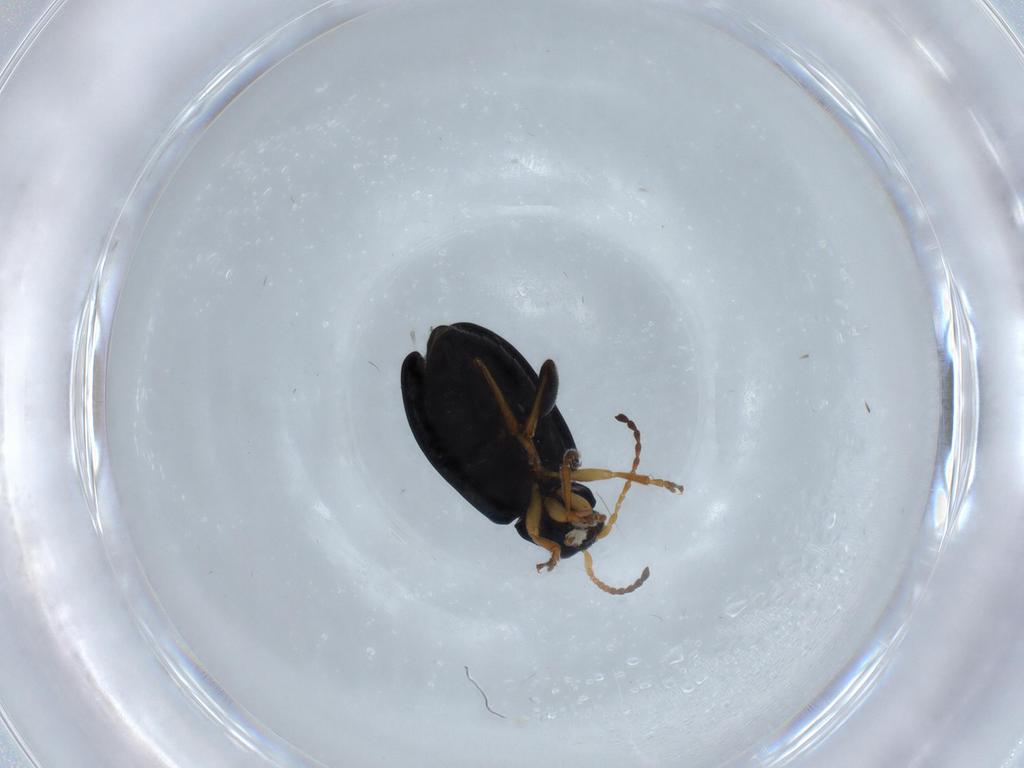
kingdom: Animalia
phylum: Arthropoda
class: Insecta
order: Coleoptera
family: Chrysomelidae
